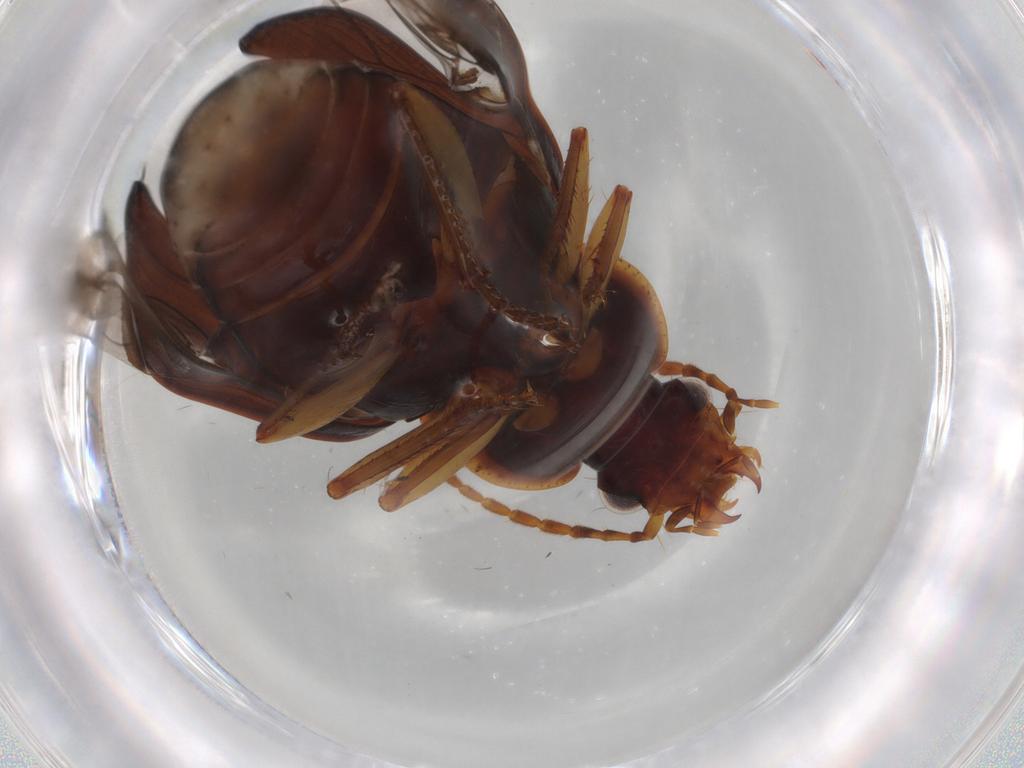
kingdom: Animalia
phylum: Arthropoda
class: Insecta
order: Coleoptera
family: Carabidae
